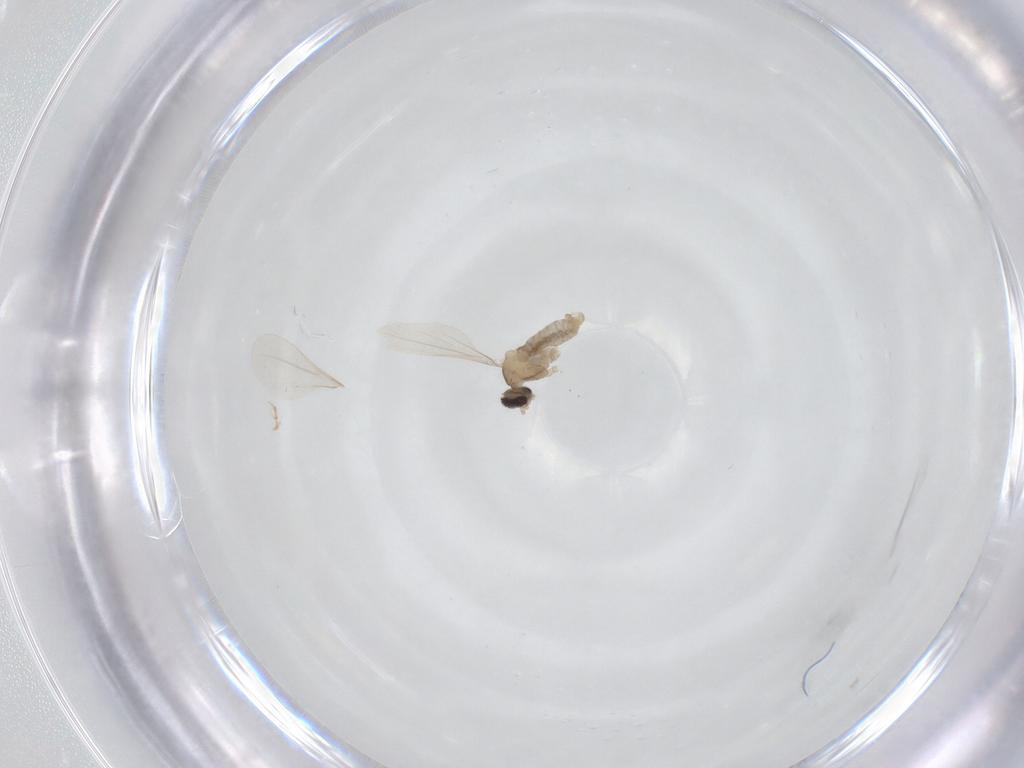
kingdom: Animalia
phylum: Arthropoda
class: Insecta
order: Diptera
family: Cecidomyiidae
